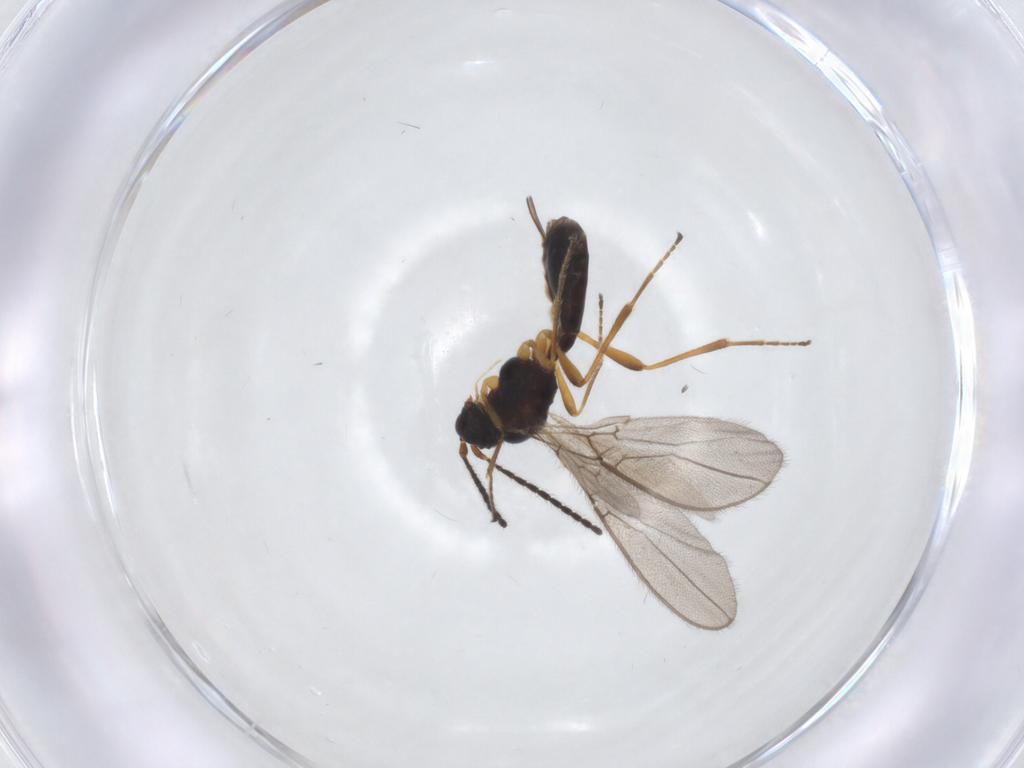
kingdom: Animalia
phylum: Arthropoda
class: Insecta
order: Hymenoptera
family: Braconidae
